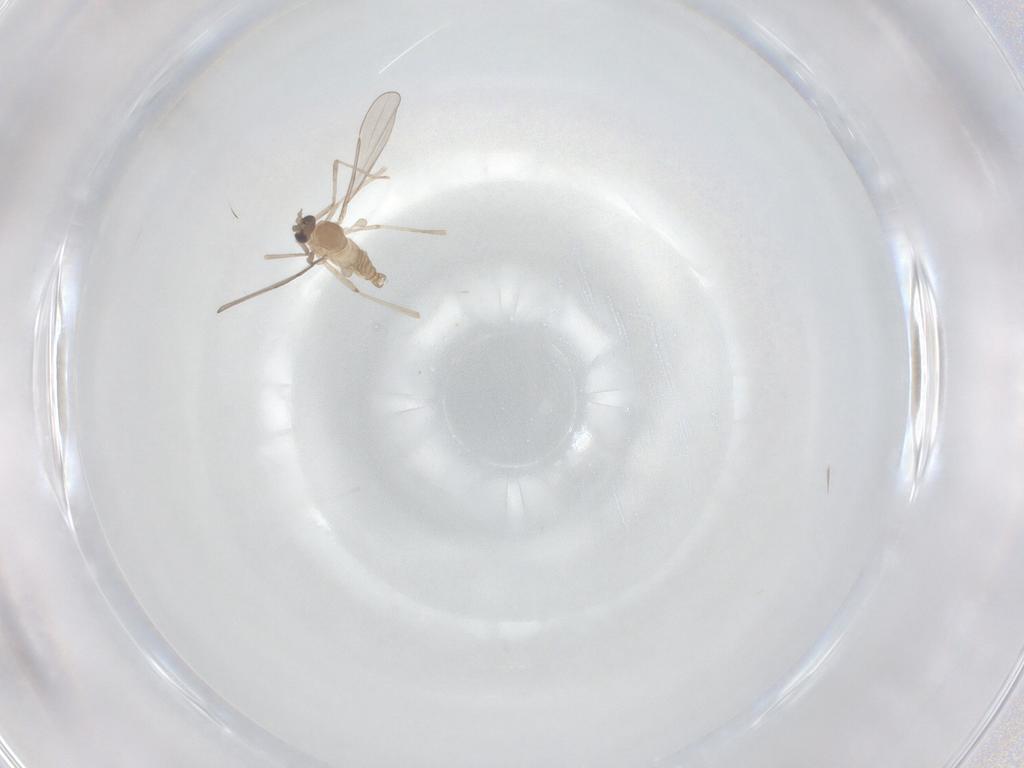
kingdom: Animalia
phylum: Arthropoda
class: Insecta
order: Diptera
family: Cecidomyiidae
